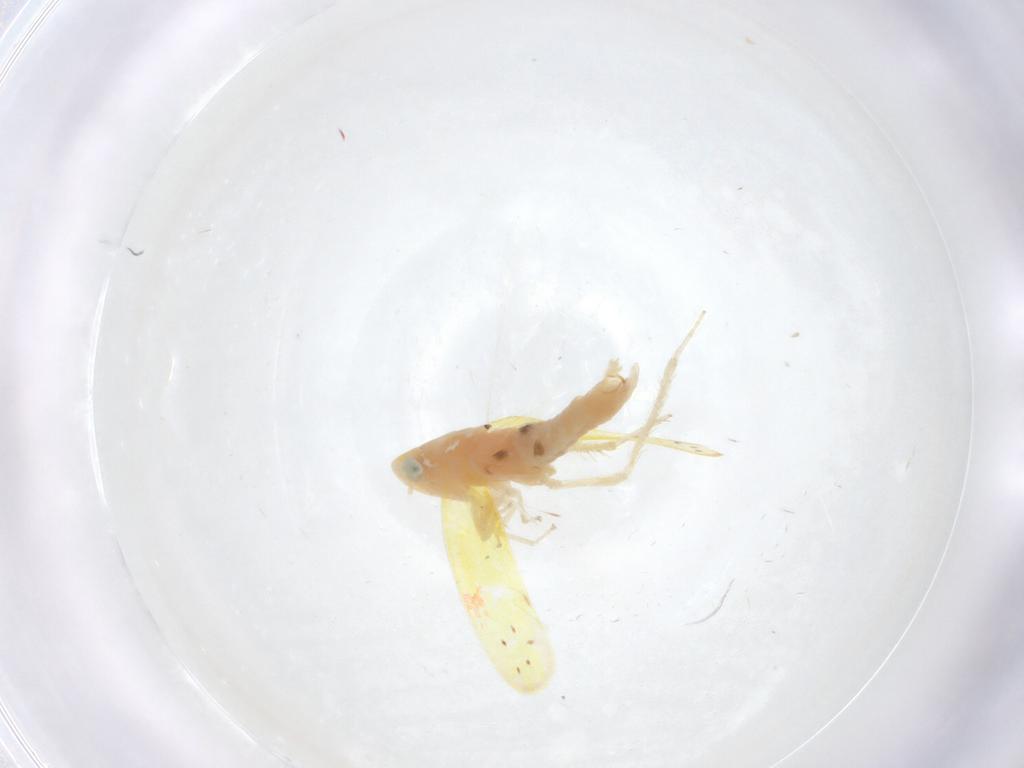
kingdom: Animalia
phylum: Arthropoda
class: Insecta
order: Hemiptera
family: Cicadellidae
